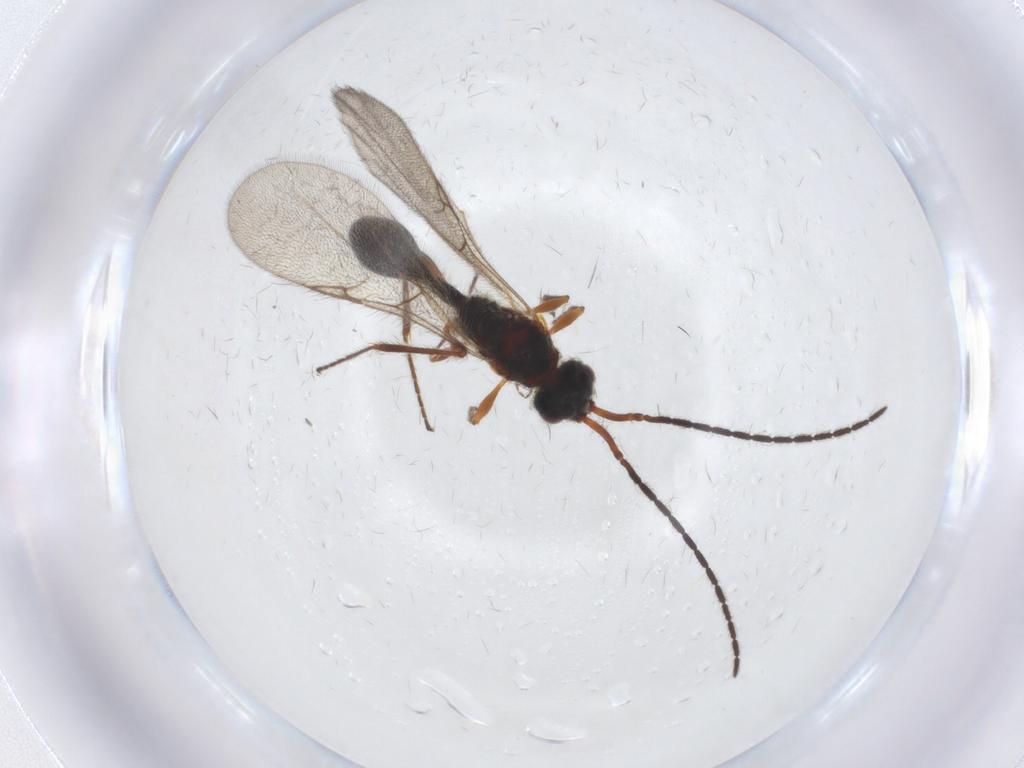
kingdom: Animalia
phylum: Arthropoda
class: Insecta
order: Hymenoptera
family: Diapriidae
